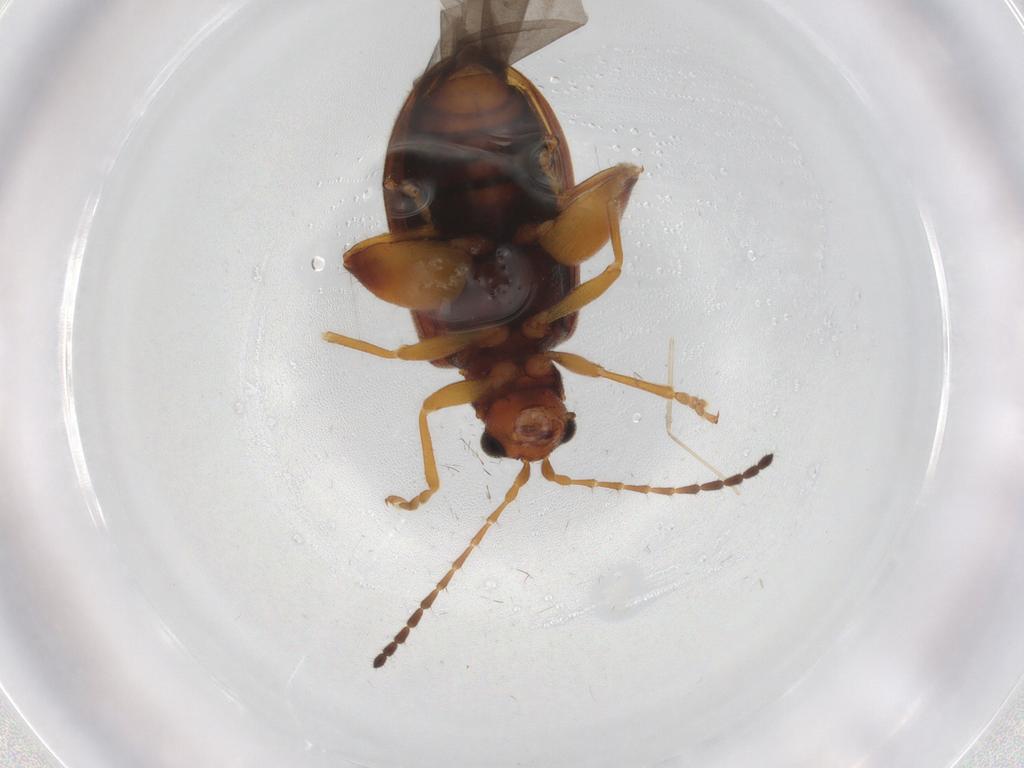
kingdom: Animalia
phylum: Arthropoda
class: Insecta
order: Coleoptera
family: Chrysomelidae
